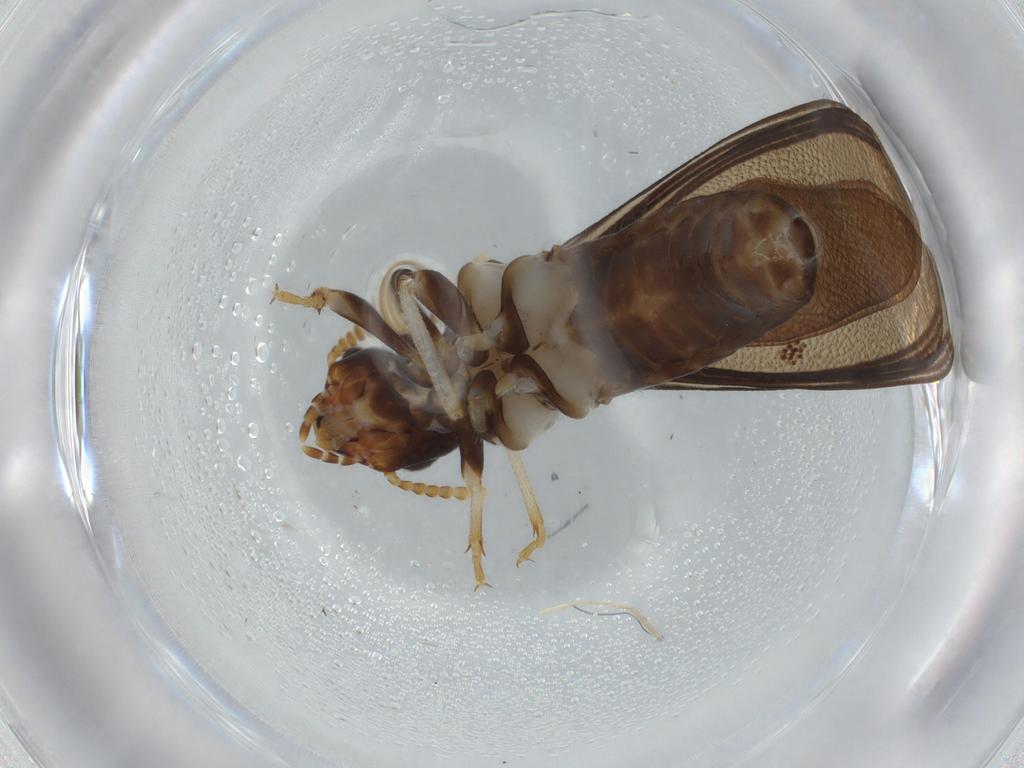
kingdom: Animalia
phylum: Arthropoda
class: Insecta
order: Blattodea
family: Kalotermitidae
